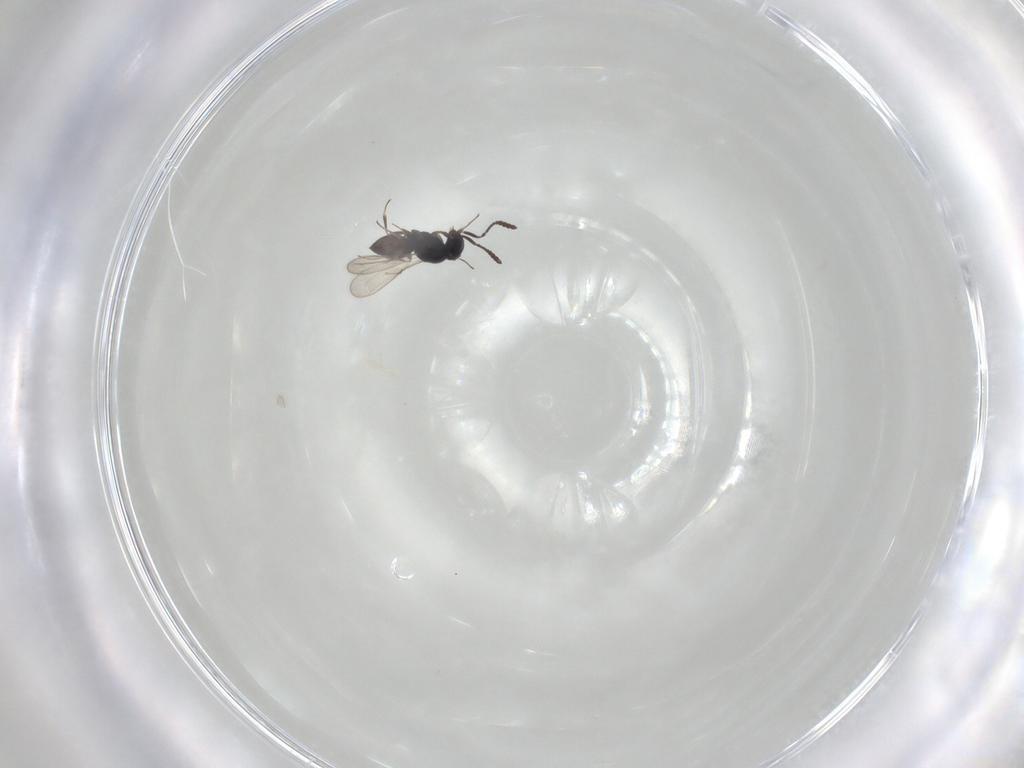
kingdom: Animalia
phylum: Arthropoda
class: Insecta
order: Hymenoptera
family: Scelionidae
